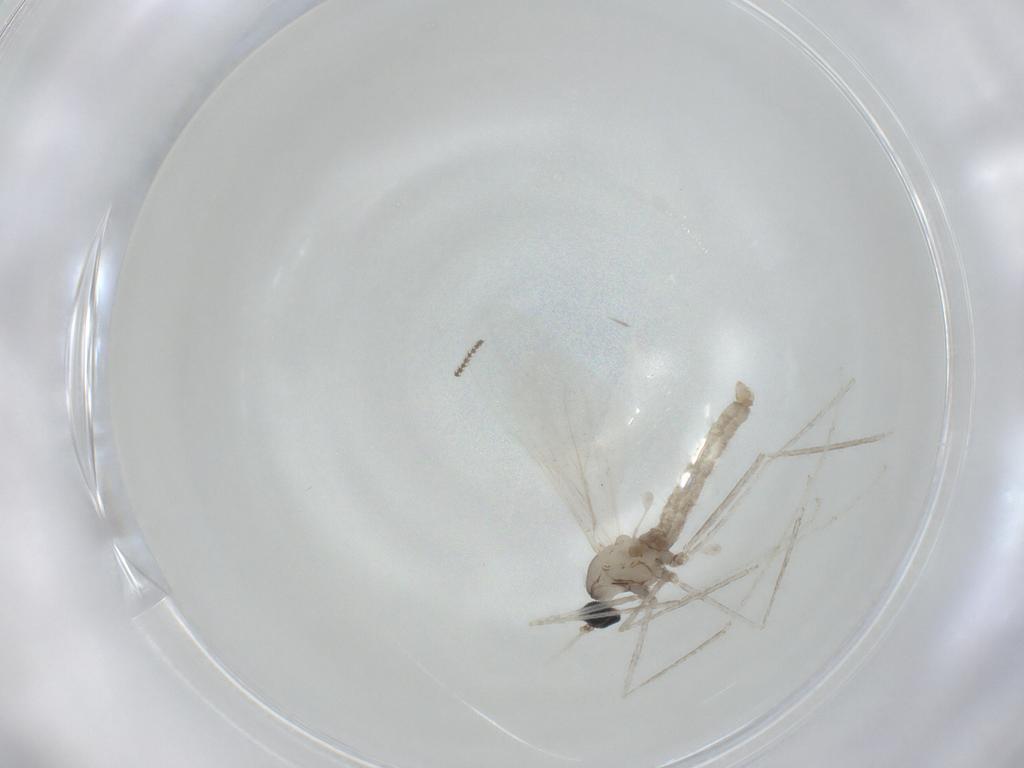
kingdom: Animalia
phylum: Arthropoda
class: Insecta
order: Diptera
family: Cecidomyiidae
